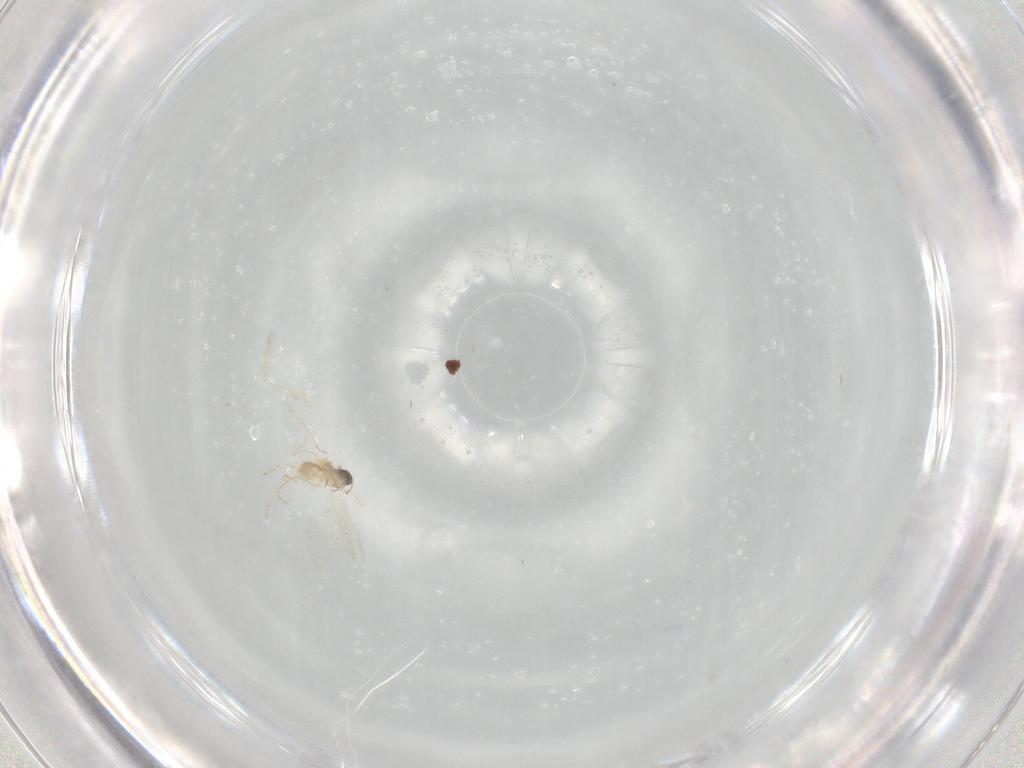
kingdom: Animalia
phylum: Arthropoda
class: Insecta
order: Diptera
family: Cecidomyiidae
